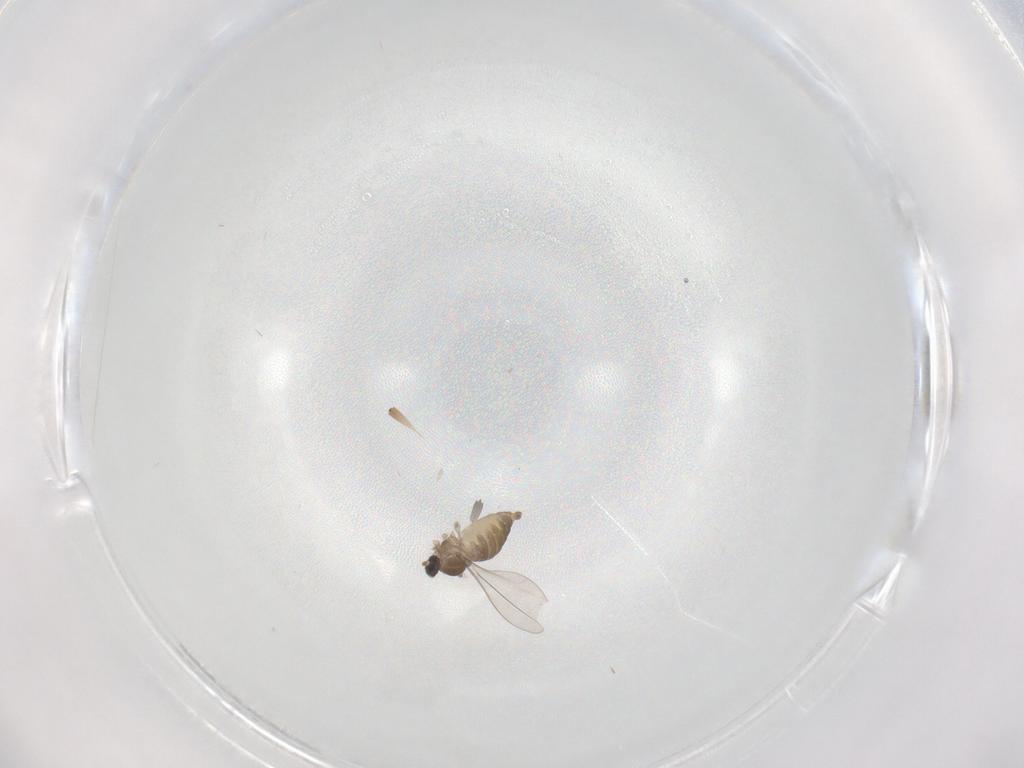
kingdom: Animalia
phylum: Arthropoda
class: Insecta
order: Diptera
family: Cecidomyiidae
